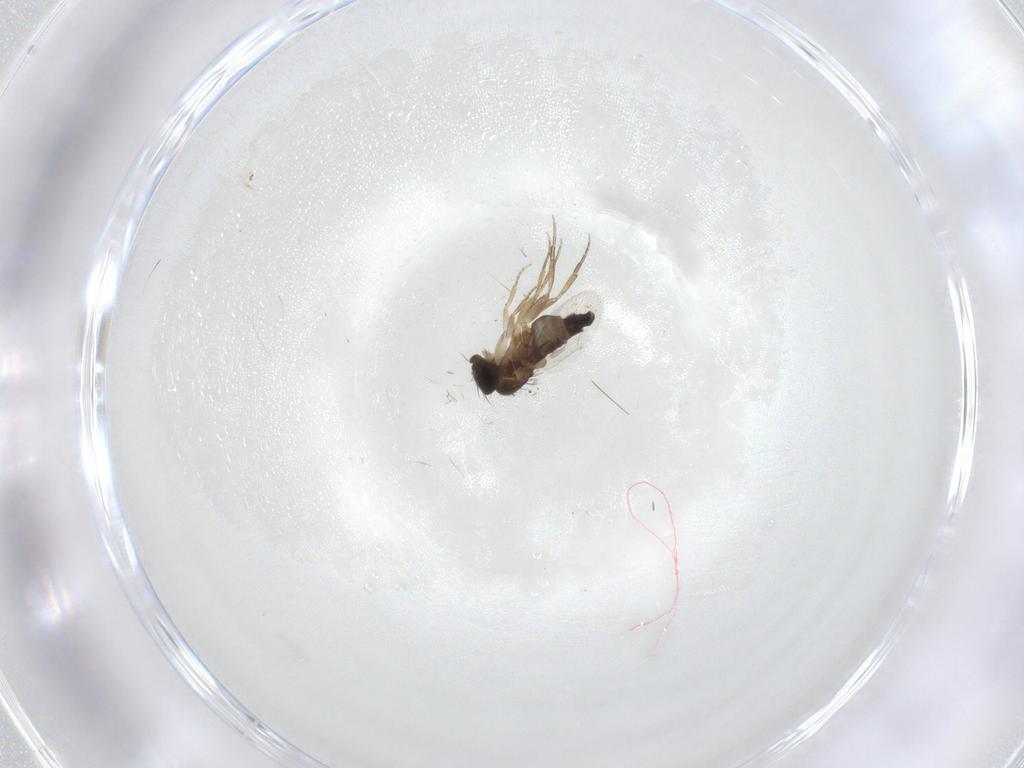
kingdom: Animalia
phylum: Arthropoda
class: Insecta
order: Diptera
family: Phoridae
